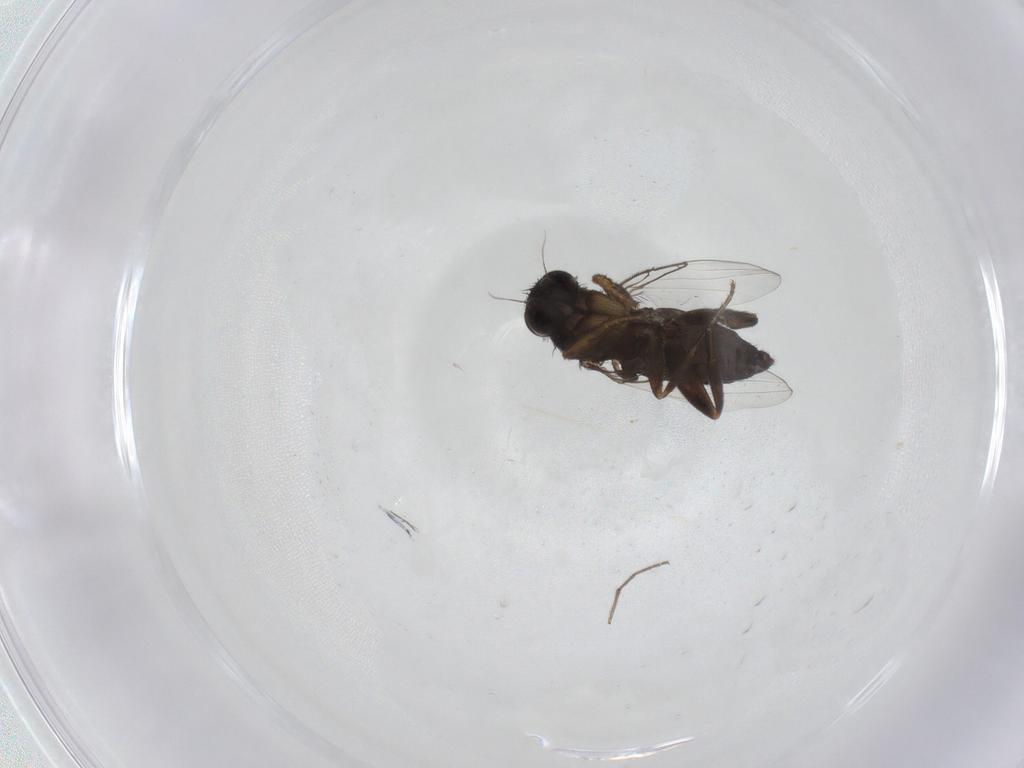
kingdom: Animalia
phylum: Arthropoda
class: Insecta
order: Diptera
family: Phoridae
